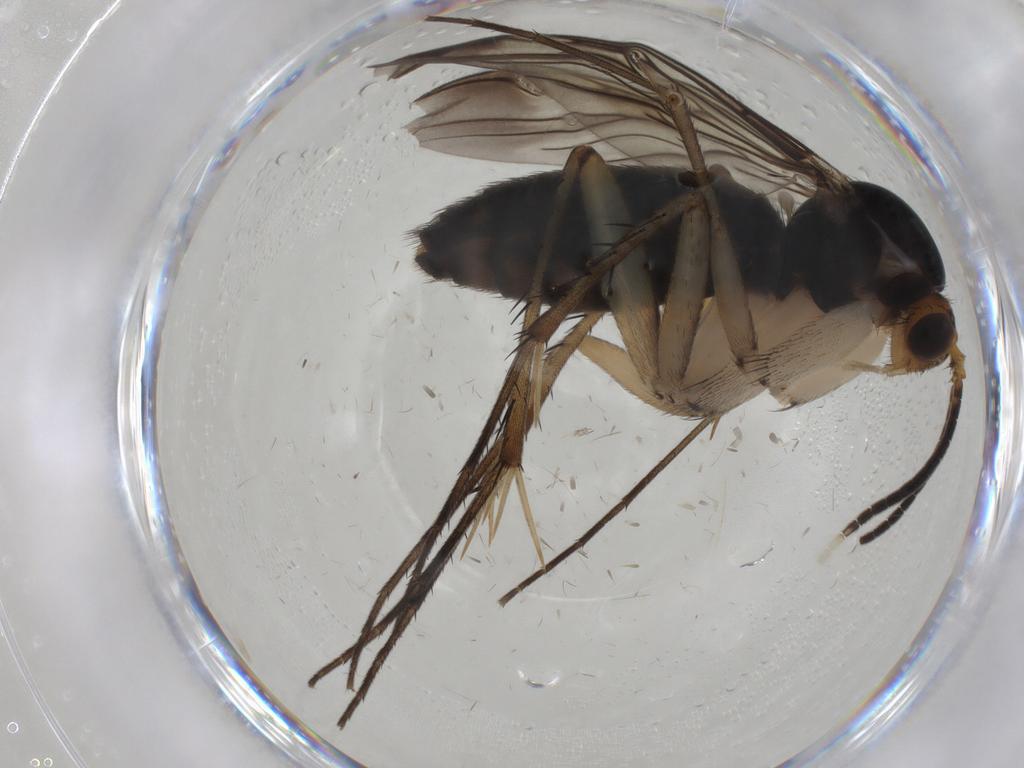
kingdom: Animalia
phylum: Arthropoda
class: Insecta
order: Diptera
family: Mycetophilidae
